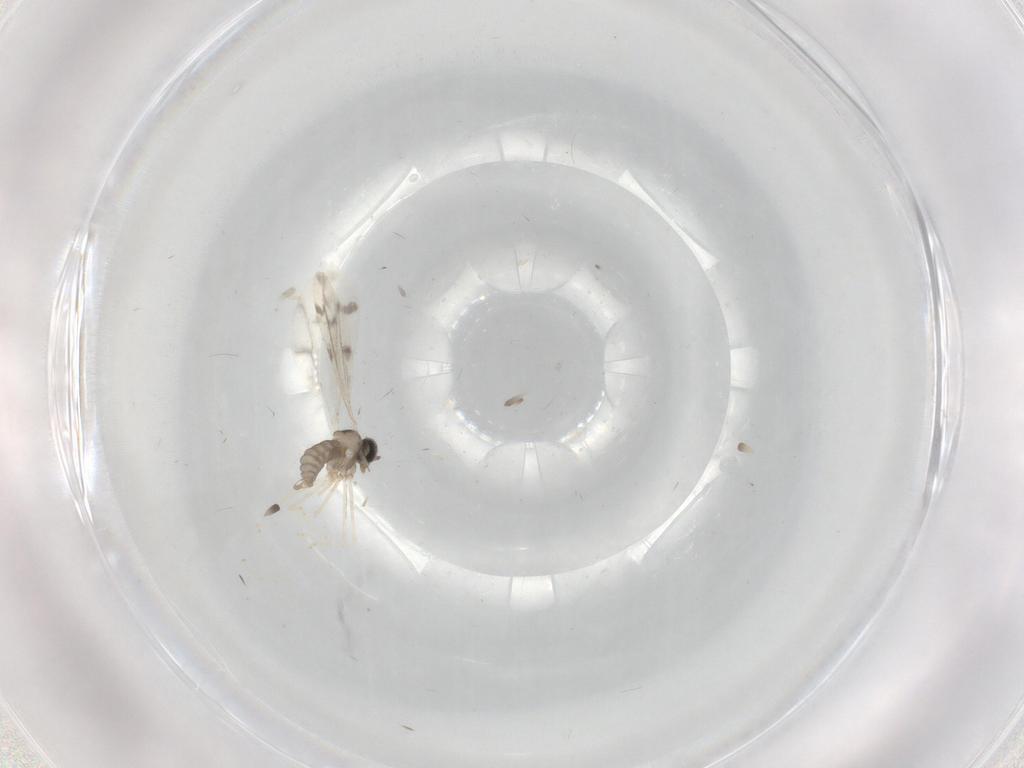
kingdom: Animalia
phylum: Arthropoda
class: Insecta
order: Diptera
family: Cecidomyiidae
